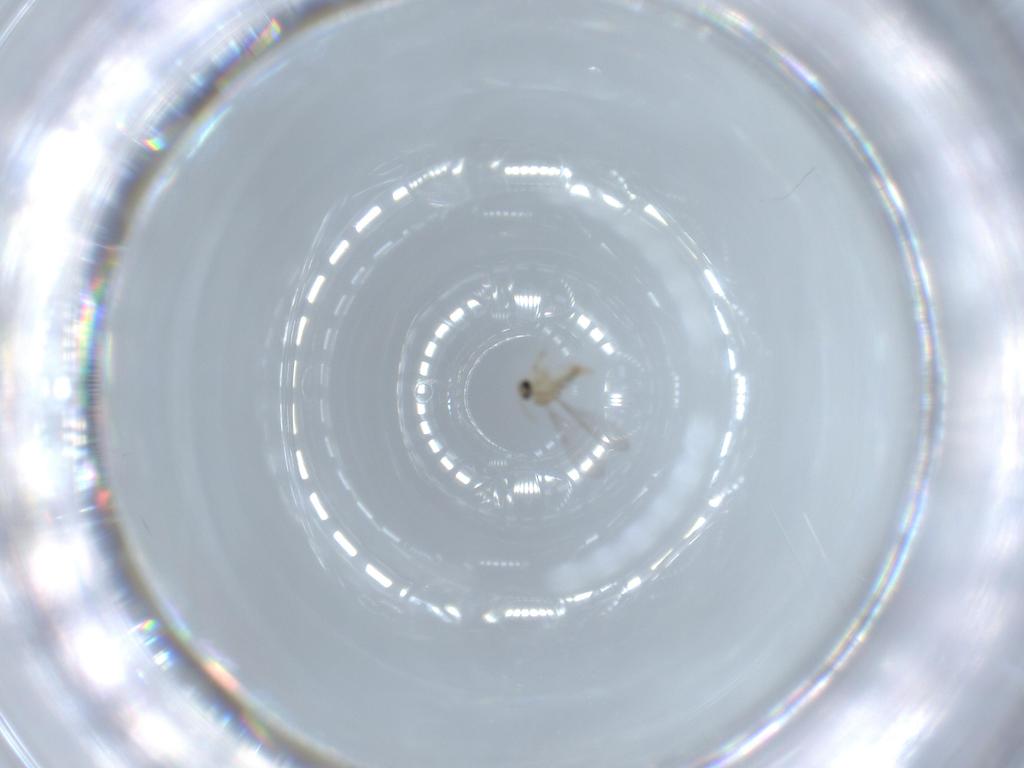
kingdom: Animalia
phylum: Arthropoda
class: Insecta
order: Diptera
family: Cecidomyiidae
